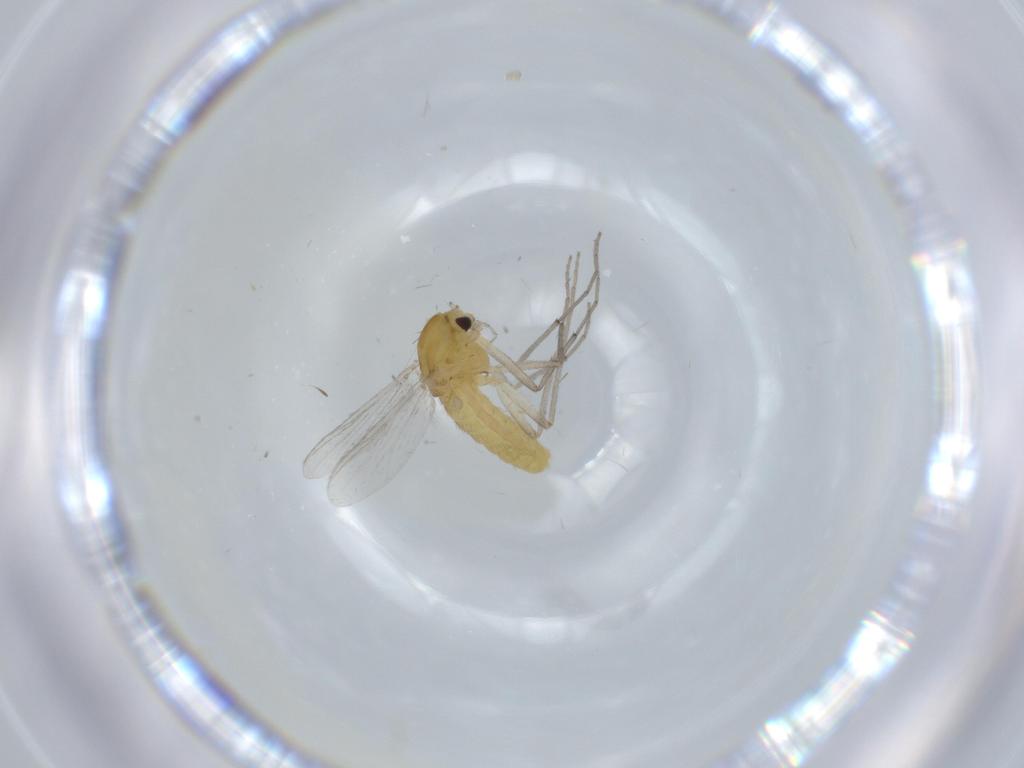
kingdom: Animalia
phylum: Arthropoda
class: Insecta
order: Diptera
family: Chironomidae
